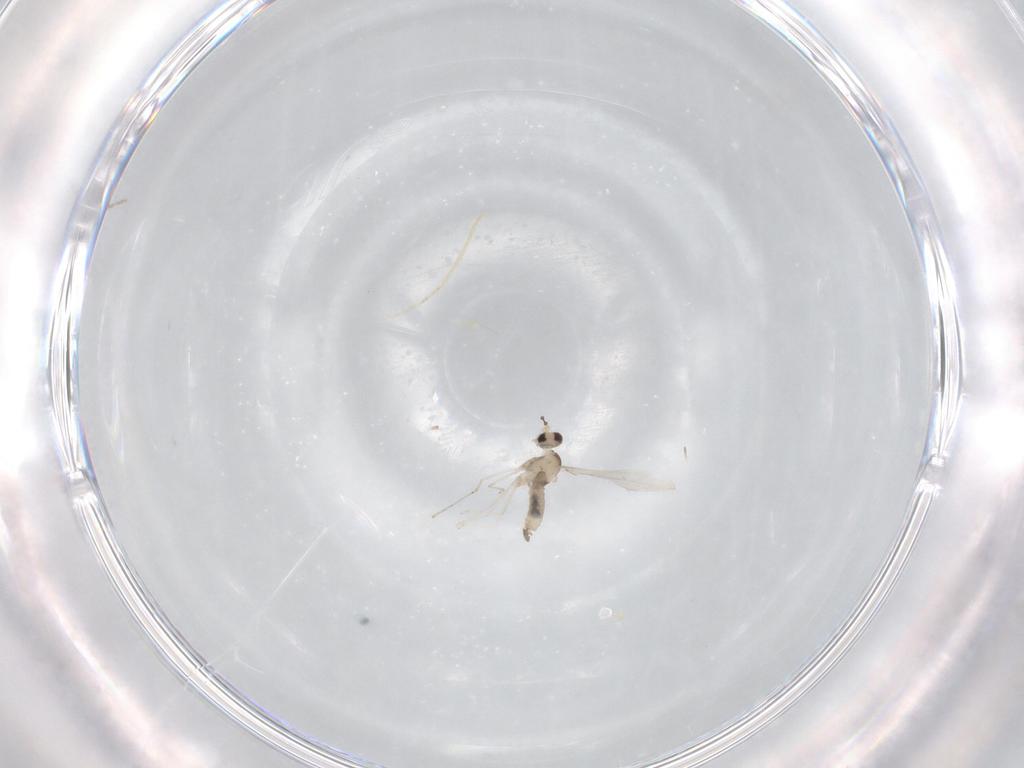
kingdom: Animalia
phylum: Arthropoda
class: Insecta
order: Diptera
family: Cecidomyiidae
